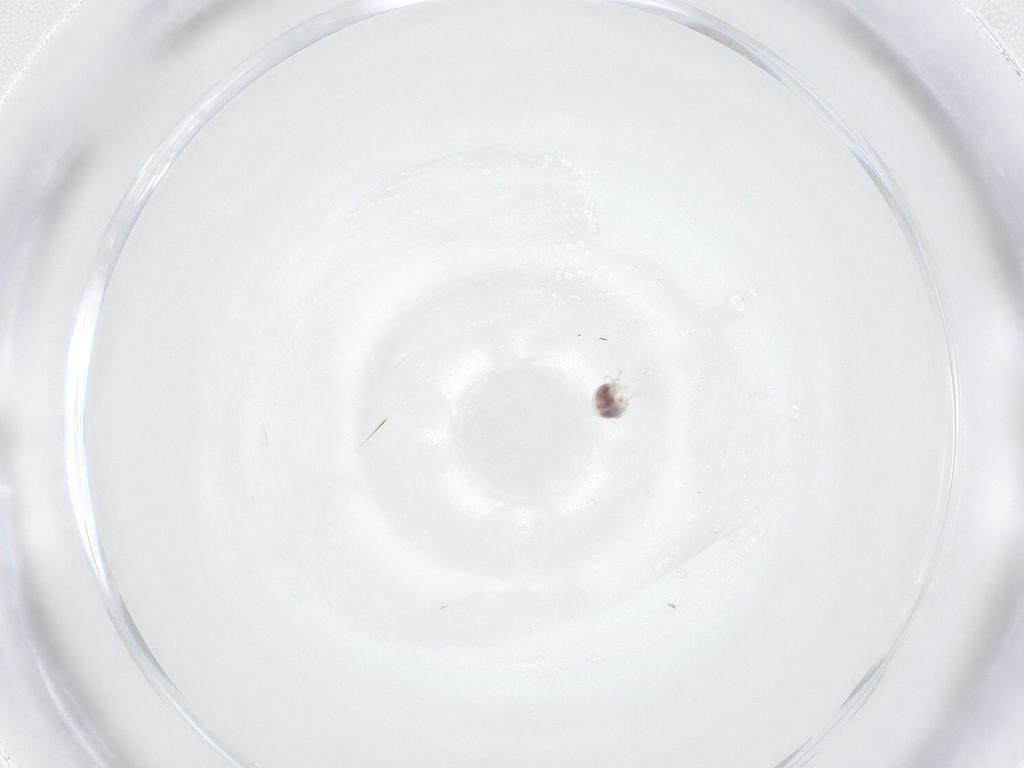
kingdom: Animalia
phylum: Arthropoda
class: Arachnida
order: Trombidiformes
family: Unionicolidae
